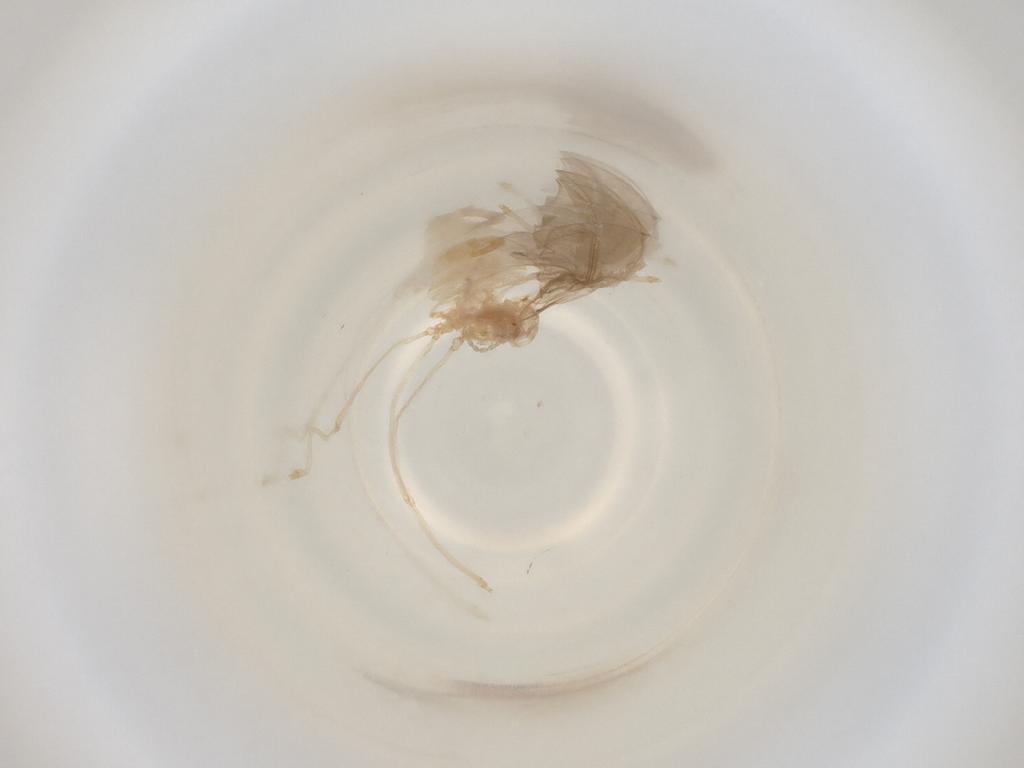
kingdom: Animalia
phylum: Arthropoda
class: Insecta
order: Diptera
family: Cecidomyiidae
